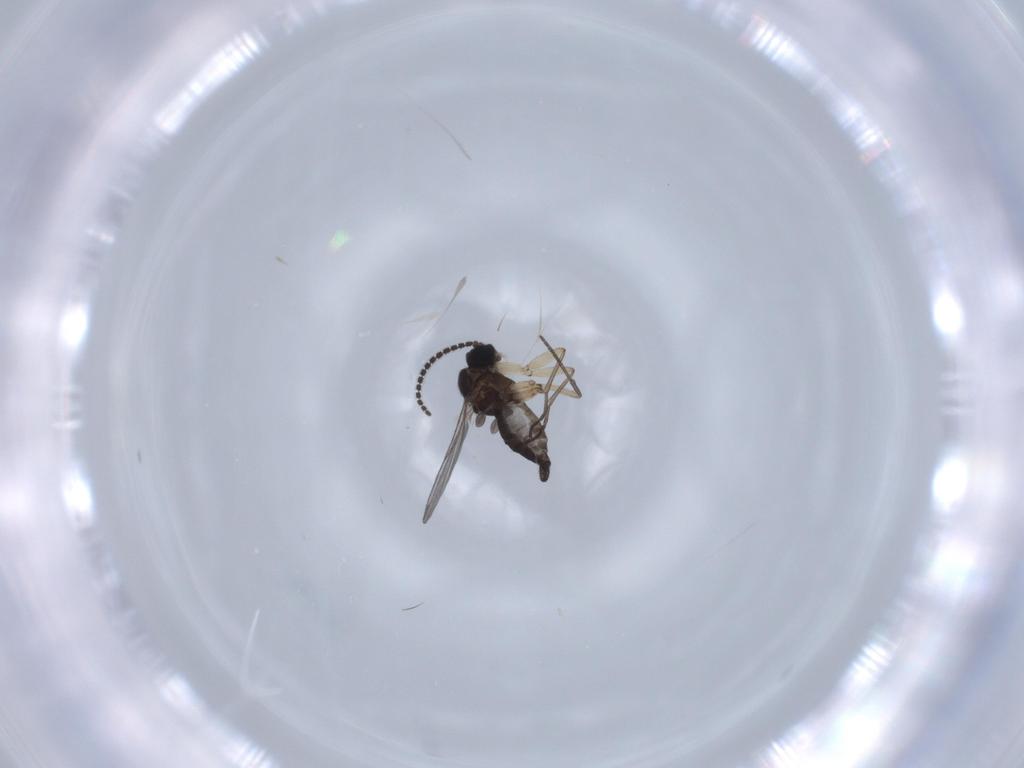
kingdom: Animalia
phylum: Arthropoda
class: Insecta
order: Diptera
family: Sciaridae
